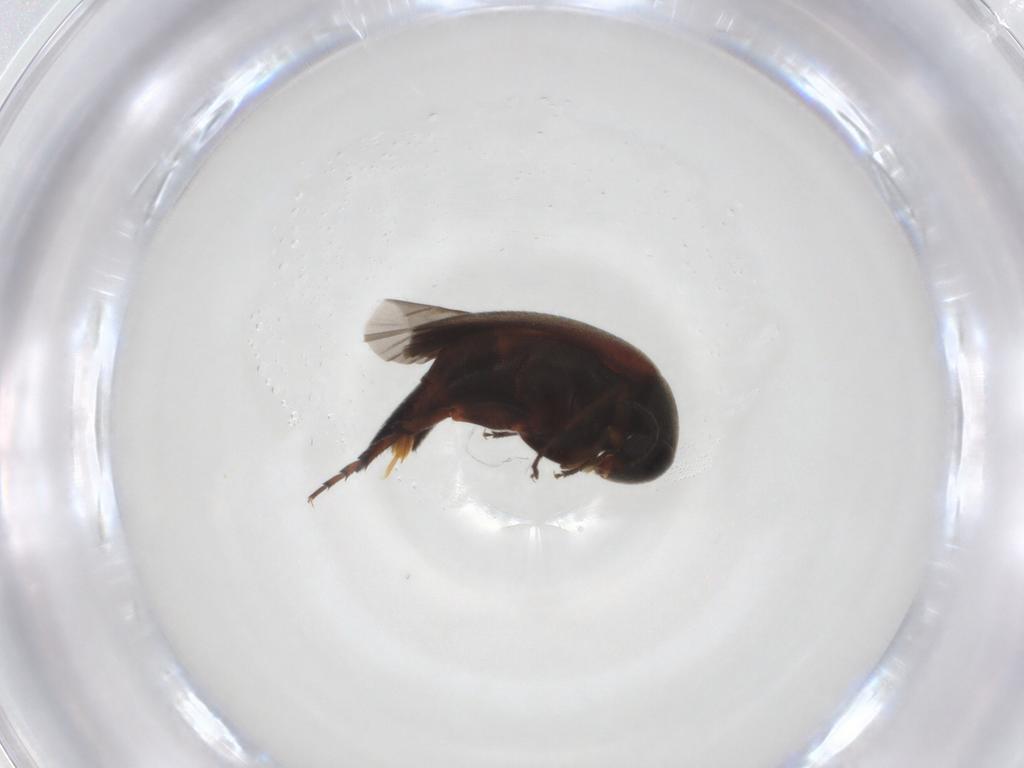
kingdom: Animalia
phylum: Arthropoda
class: Insecta
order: Coleoptera
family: Mordellidae
